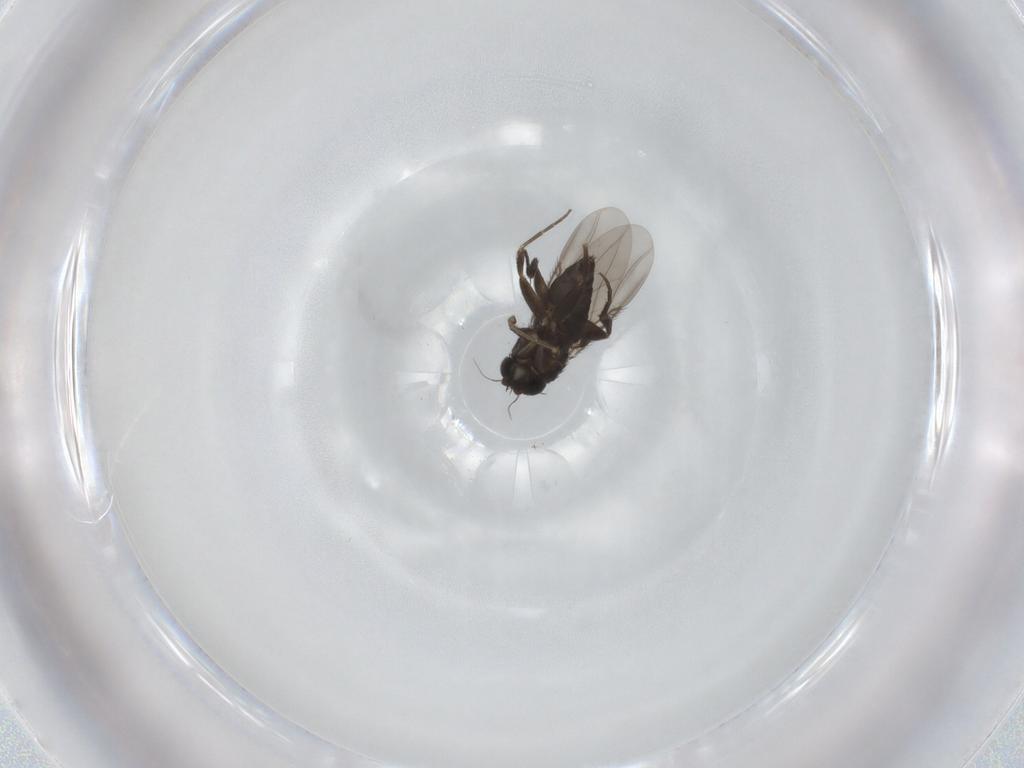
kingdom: Animalia
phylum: Arthropoda
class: Insecta
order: Diptera
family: Phoridae
